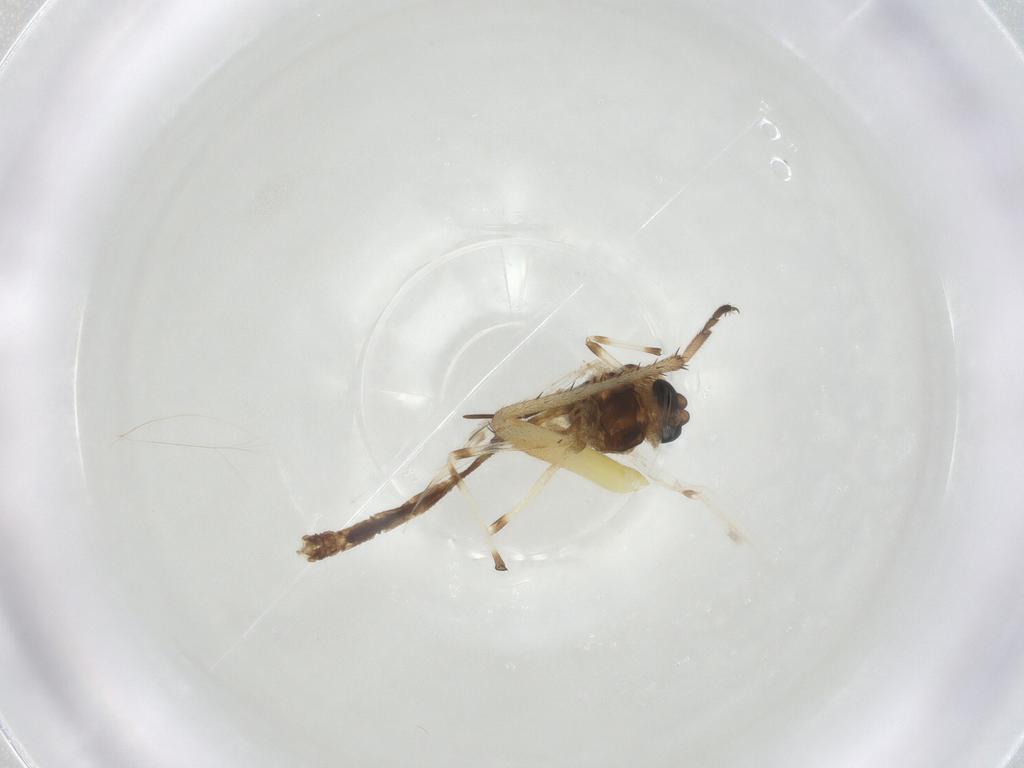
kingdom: Animalia
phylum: Arthropoda
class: Insecta
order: Diptera
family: Chironomidae
